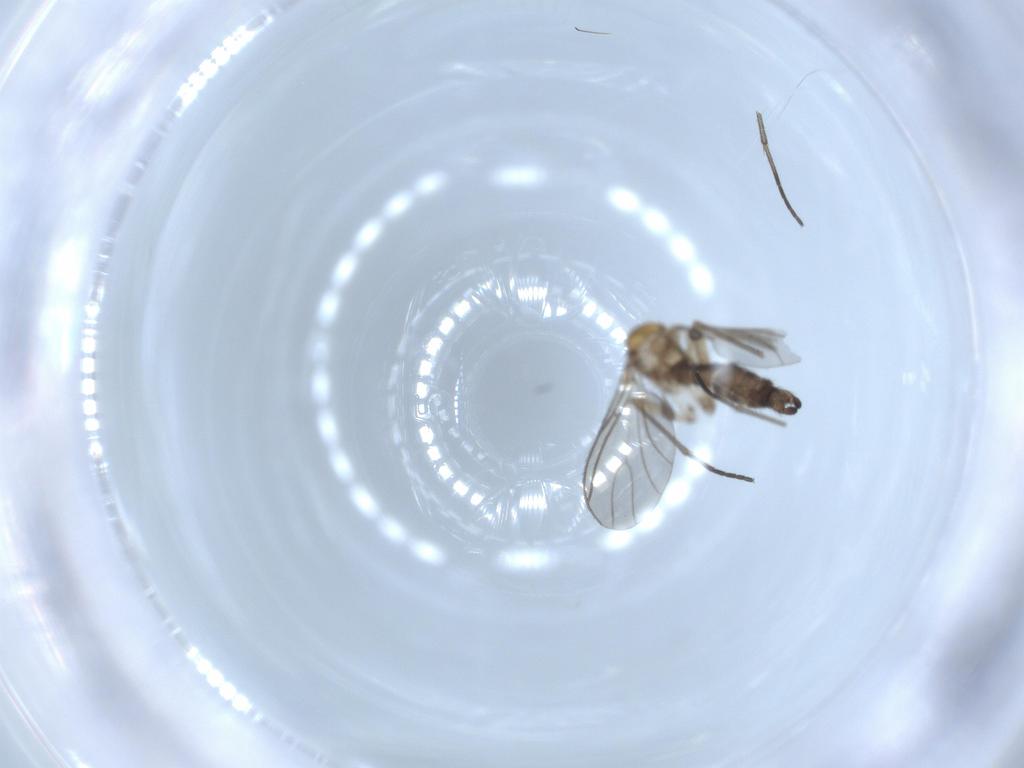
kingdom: Animalia
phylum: Arthropoda
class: Insecta
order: Diptera
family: Sciaridae
